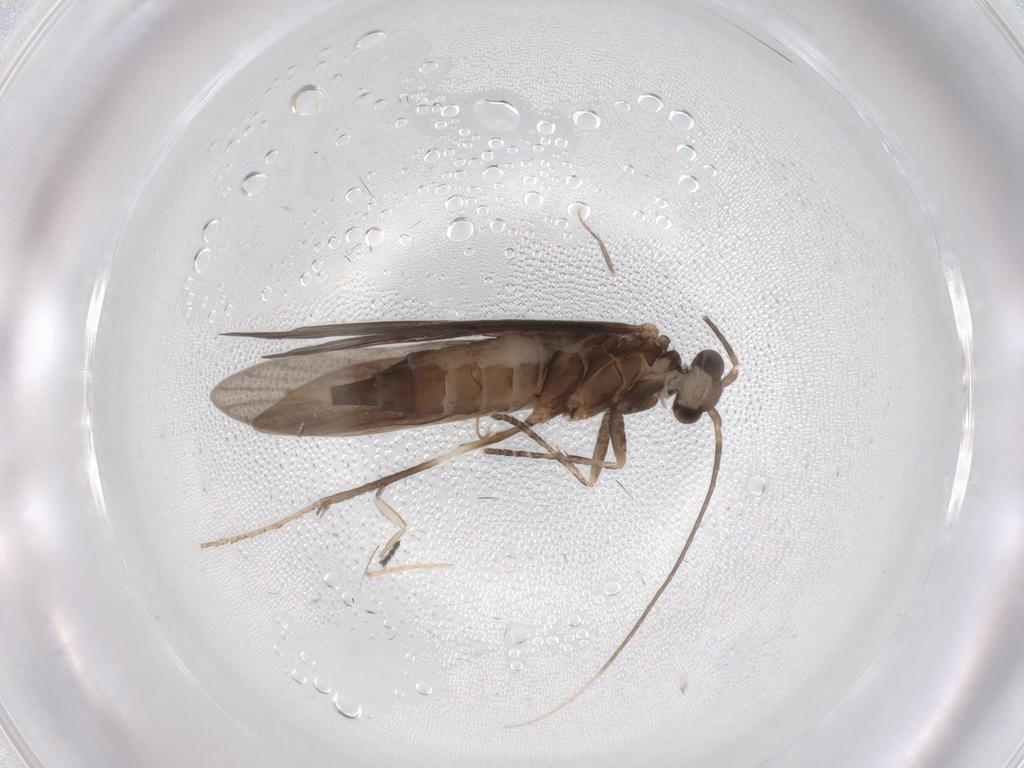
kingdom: Animalia
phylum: Arthropoda
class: Insecta
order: Trichoptera
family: Xiphocentronidae
